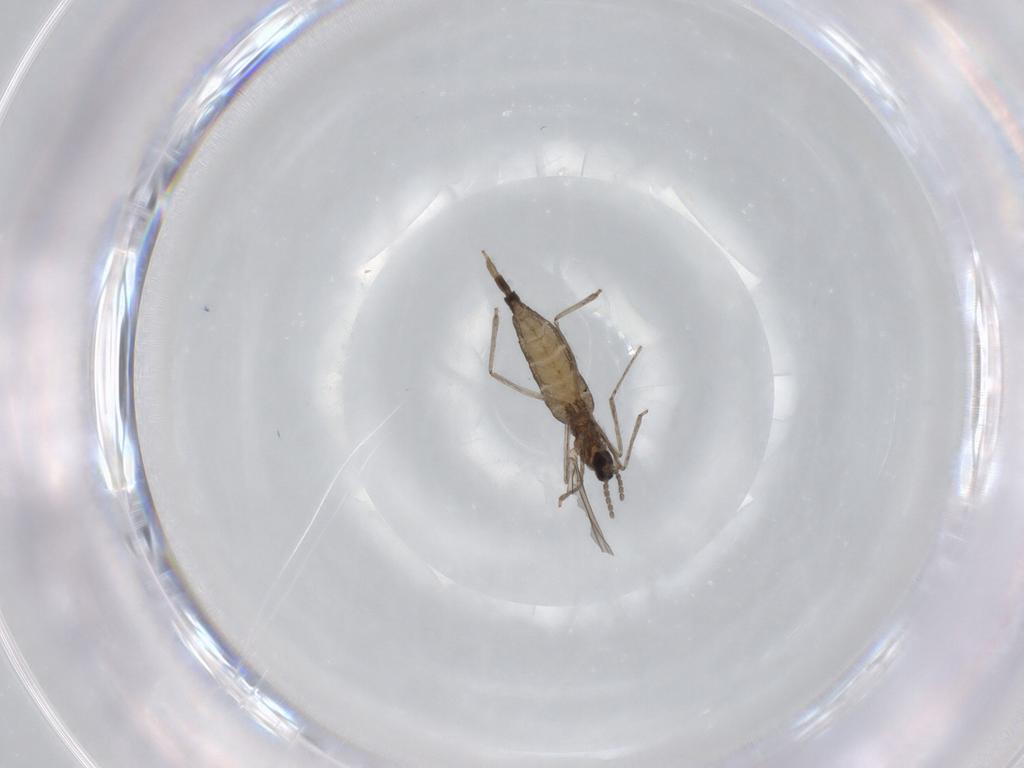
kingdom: Animalia
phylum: Arthropoda
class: Insecta
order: Diptera
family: Cecidomyiidae
